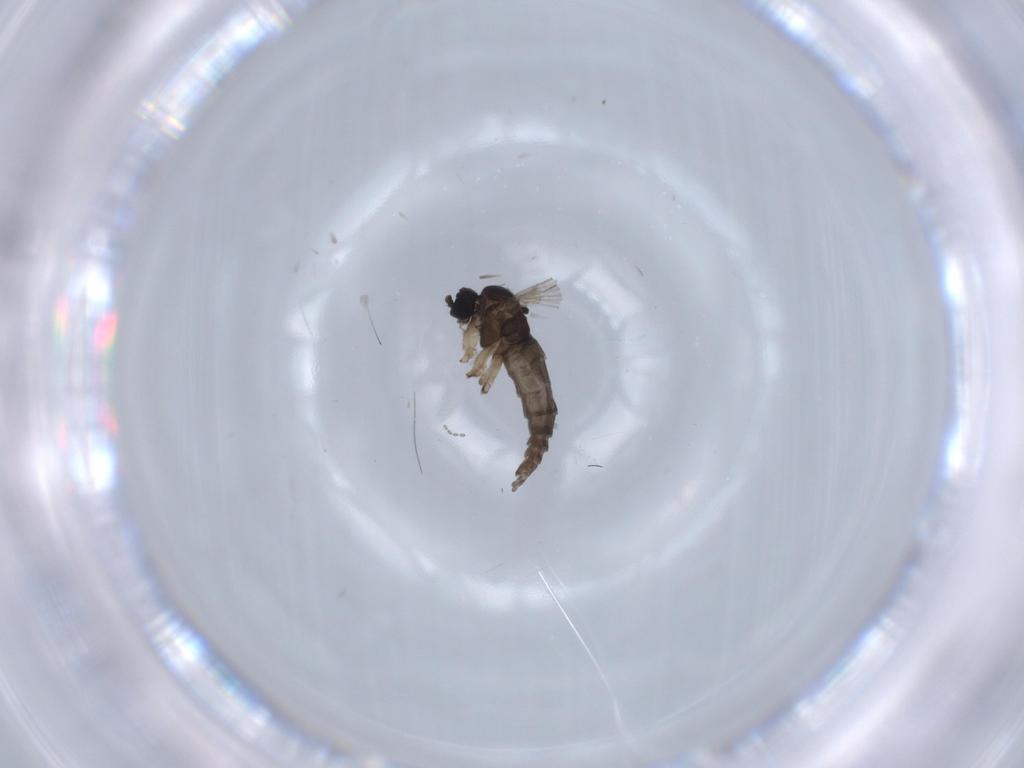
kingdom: Animalia
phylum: Arthropoda
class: Insecta
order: Diptera
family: Sciaridae
